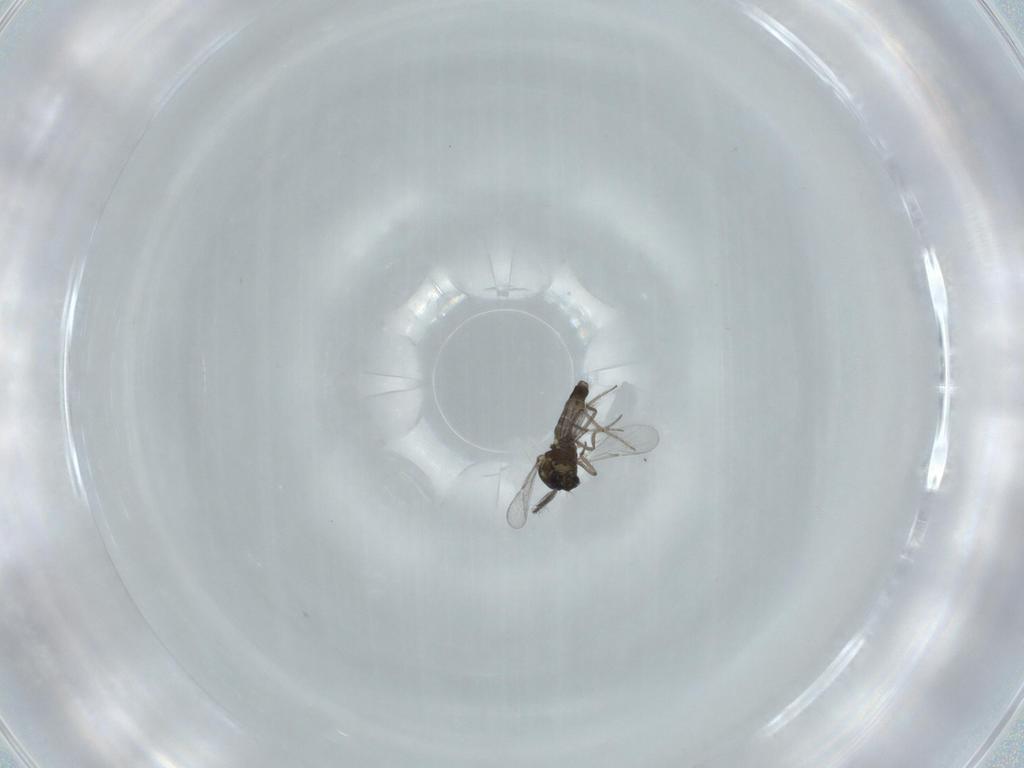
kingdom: Animalia
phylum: Arthropoda
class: Insecta
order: Diptera
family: Ceratopogonidae
